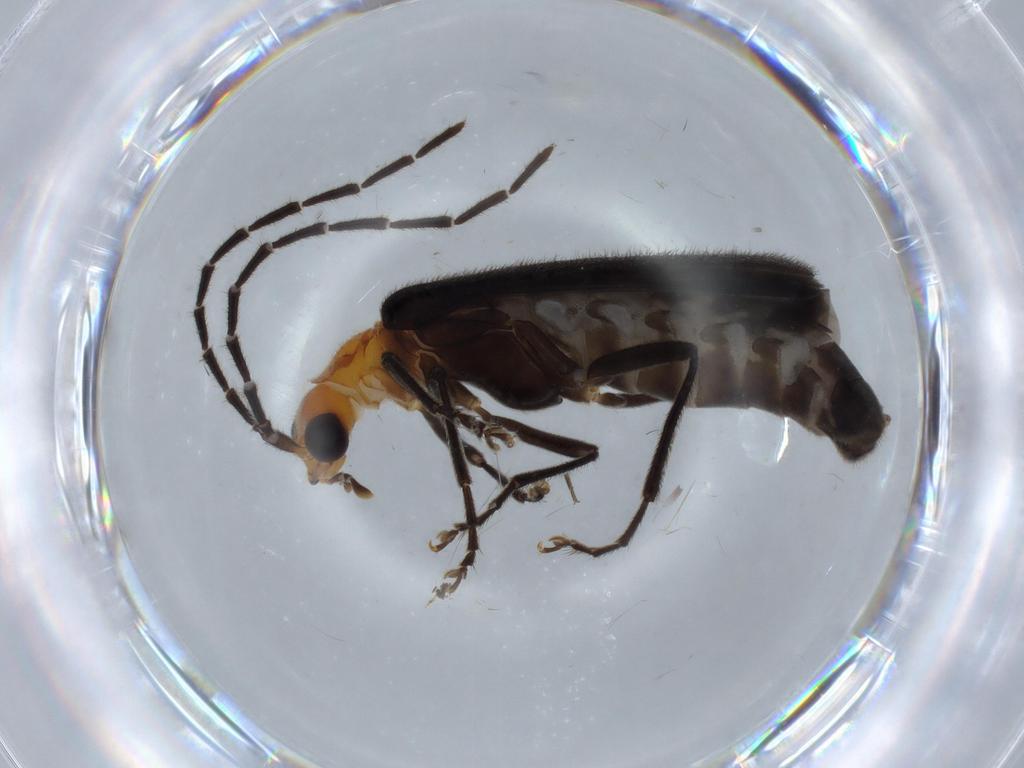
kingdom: Animalia
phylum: Arthropoda
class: Insecta
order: Coleoptera
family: Cantharidae
